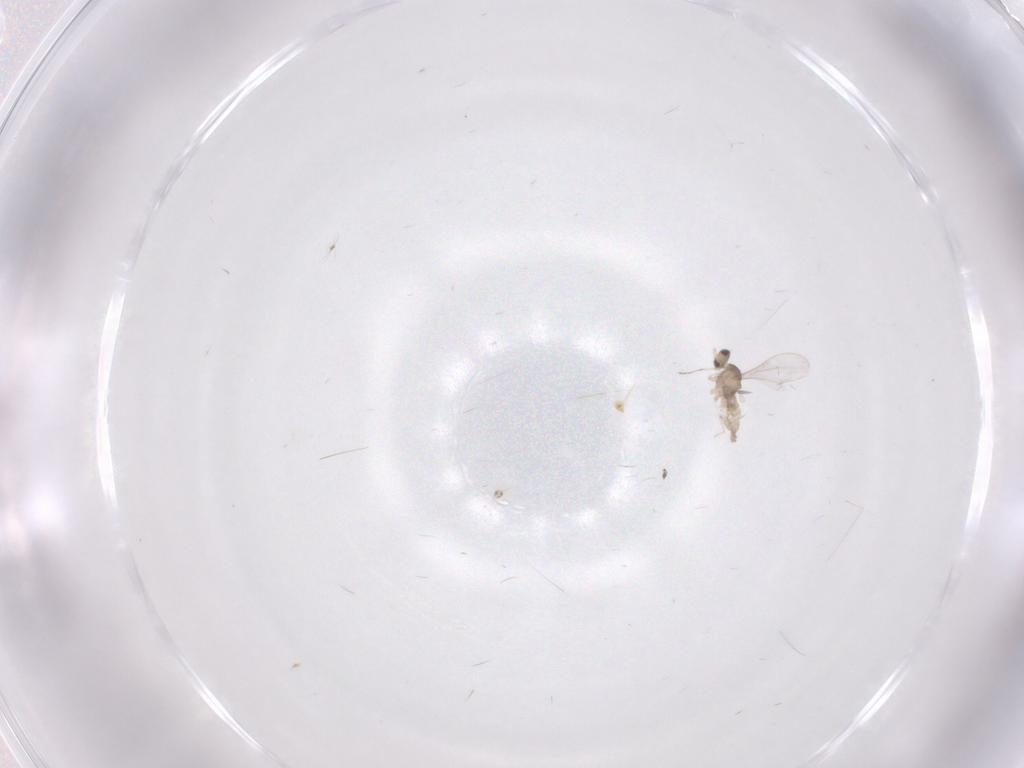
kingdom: Animalia
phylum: Arthropoda
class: Insecta
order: Diptera
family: Cecidomyiidae
